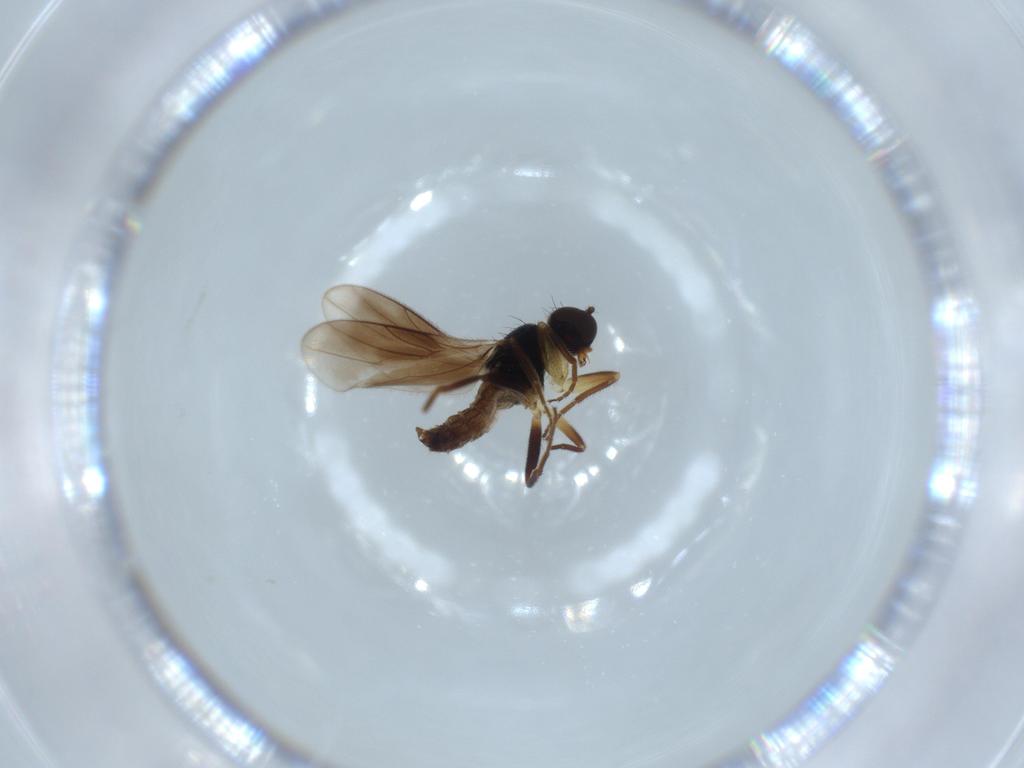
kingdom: Animalia
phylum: Arthropoda
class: Insecta
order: Diptera
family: Hybotidae
